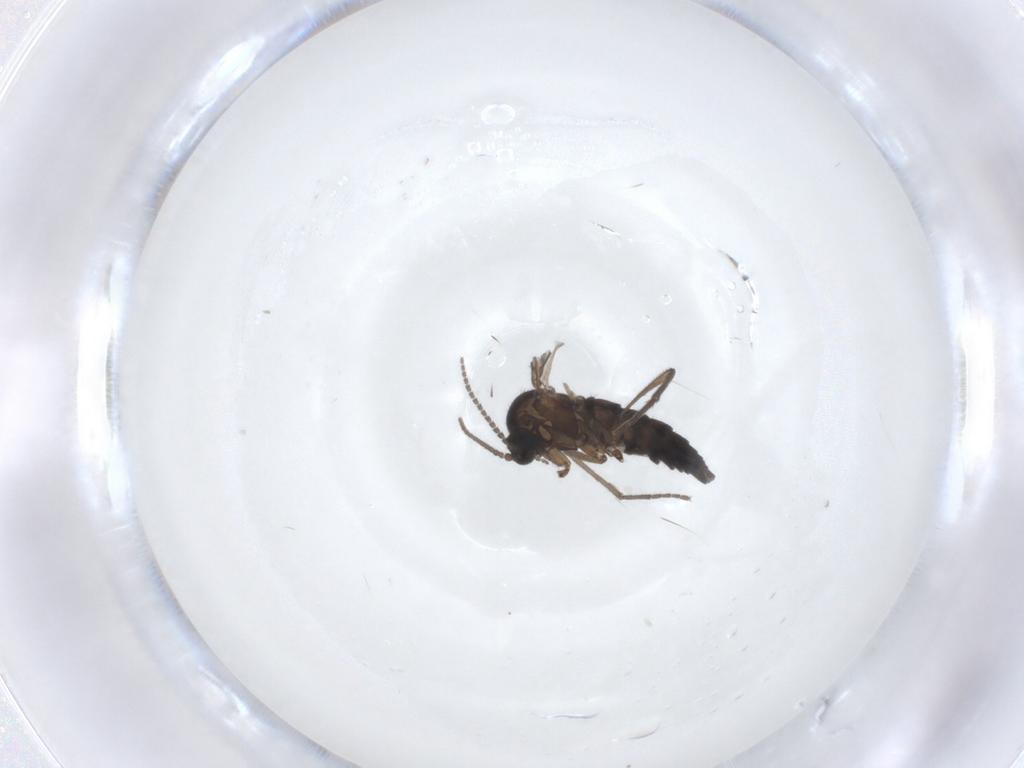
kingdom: Animalia
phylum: Arthropoda
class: Insecta
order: Diptera
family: Sciaridae
